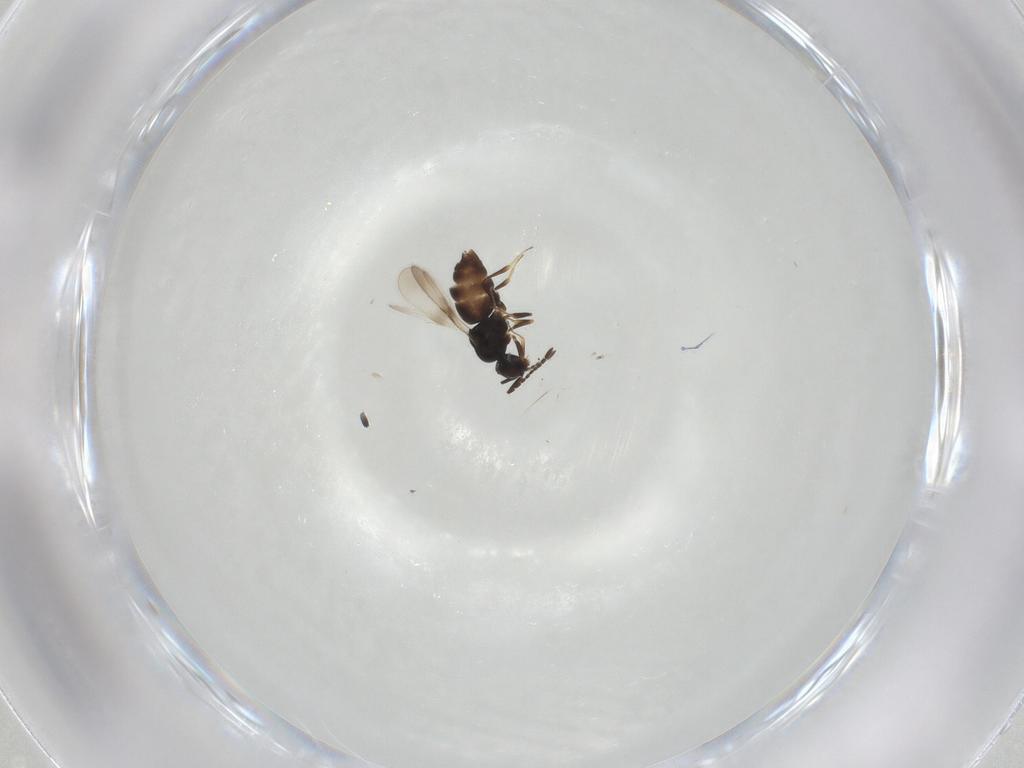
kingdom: Animalia
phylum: Arthropoda
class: Insecta
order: Hymenoptera
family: Ceraphronidae
